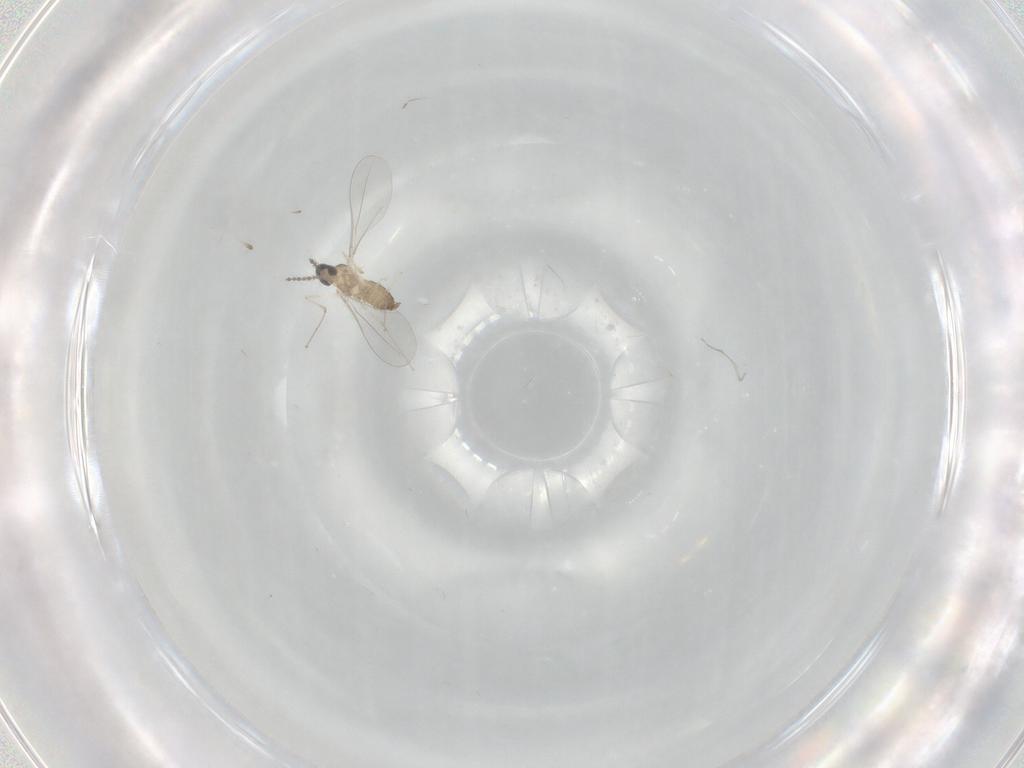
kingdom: Animalia
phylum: Arthropoda
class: Insecta
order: Diptera
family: Cecidomyiidae
